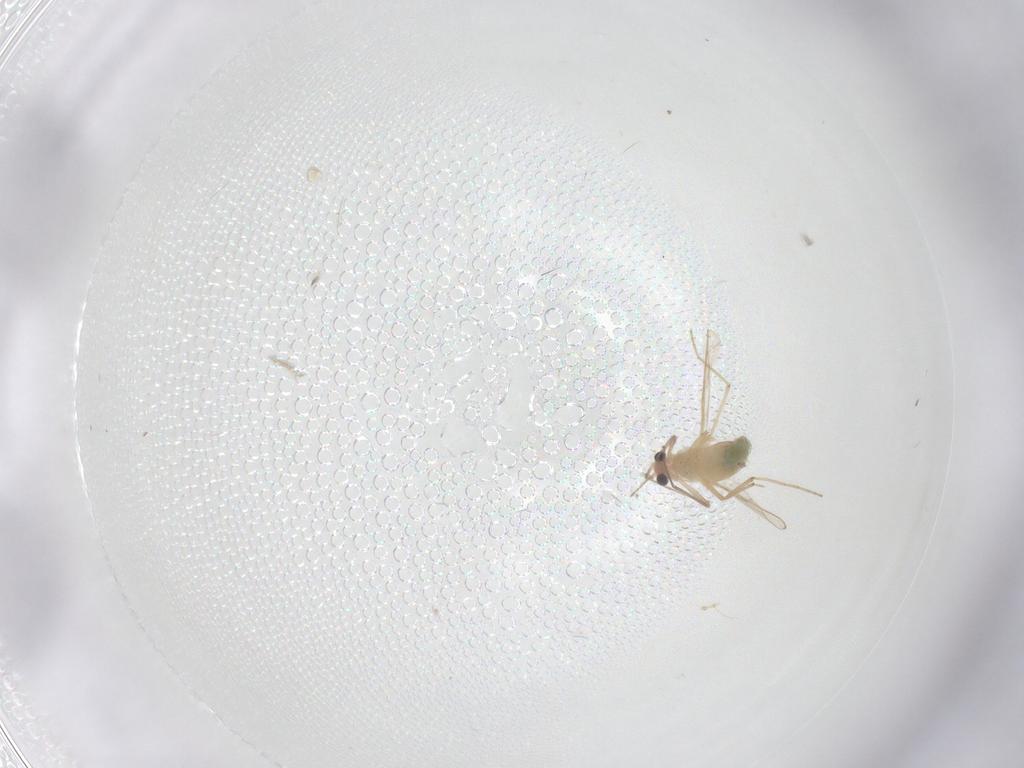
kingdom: Animalia
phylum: Arthropoda
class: Insecta
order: Diptera
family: Chironomidae
